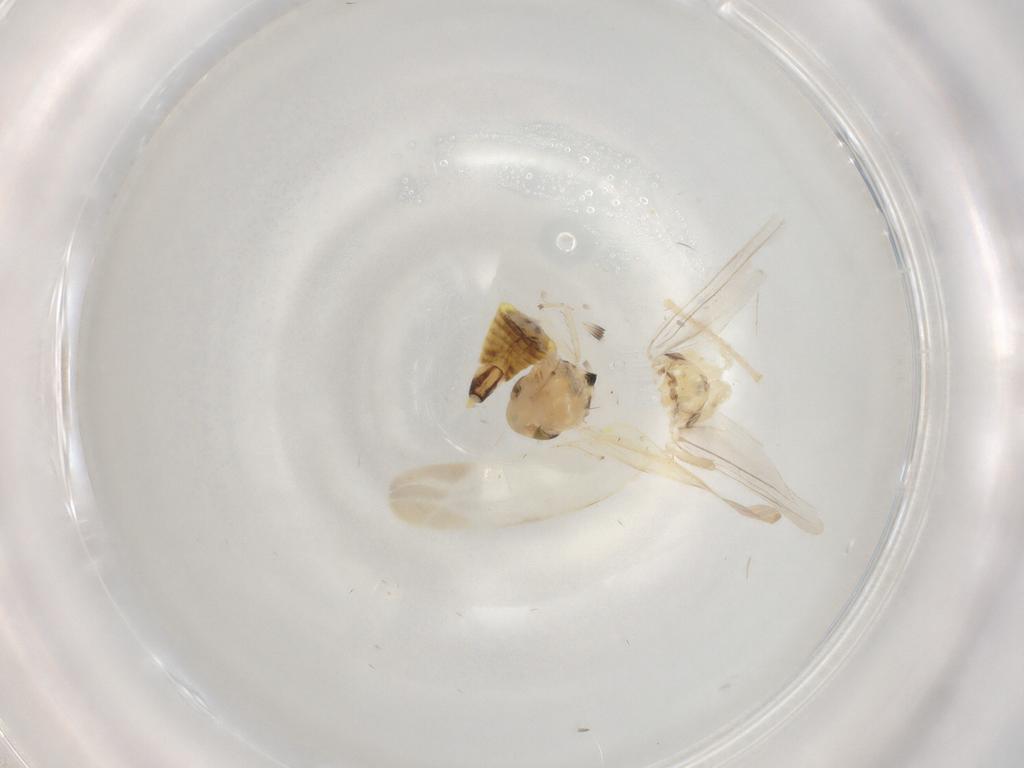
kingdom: Animalia
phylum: Arthropoda
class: Insecta
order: Hemiptera
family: Cicadellidae
